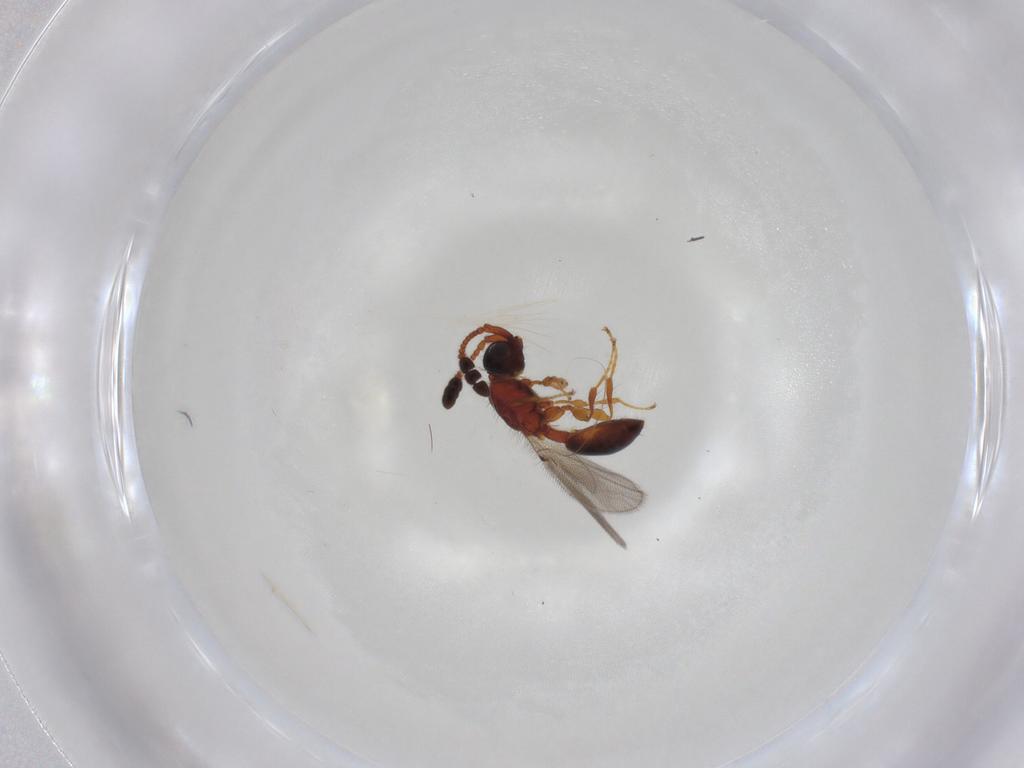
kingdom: Animalia
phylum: Arthropoda
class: Insecta
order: Hymenoptera
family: Diapriidae
